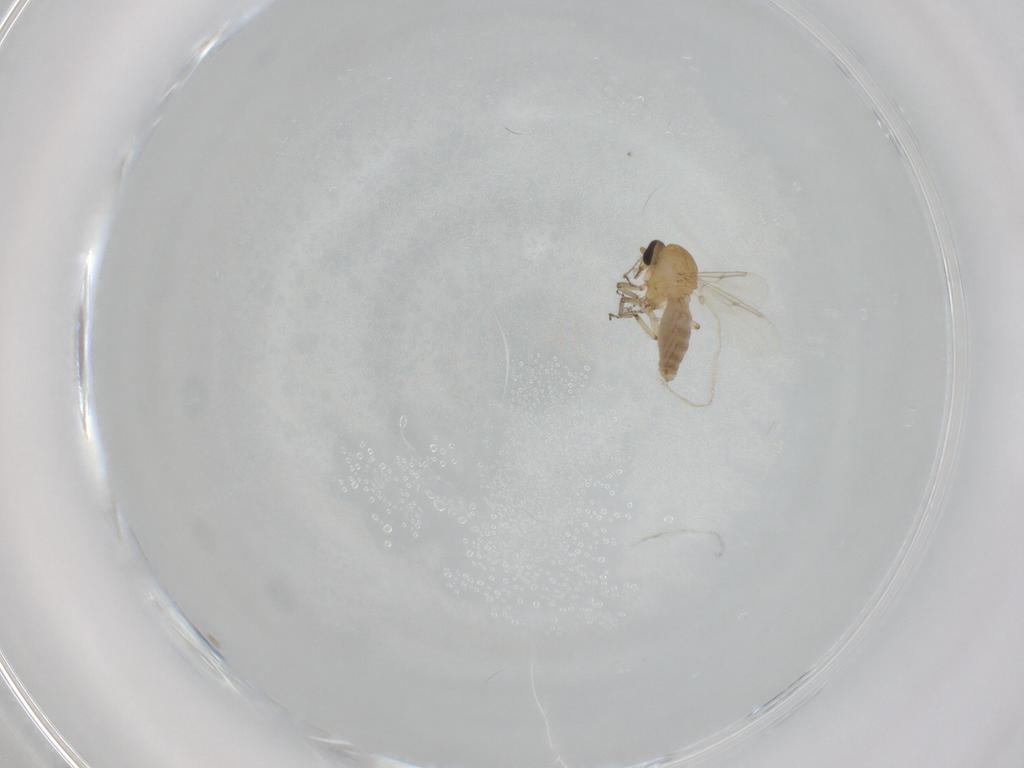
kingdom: Animalia
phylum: Arthropoda
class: Insecta
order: Diptera
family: Ceratopogonidae
